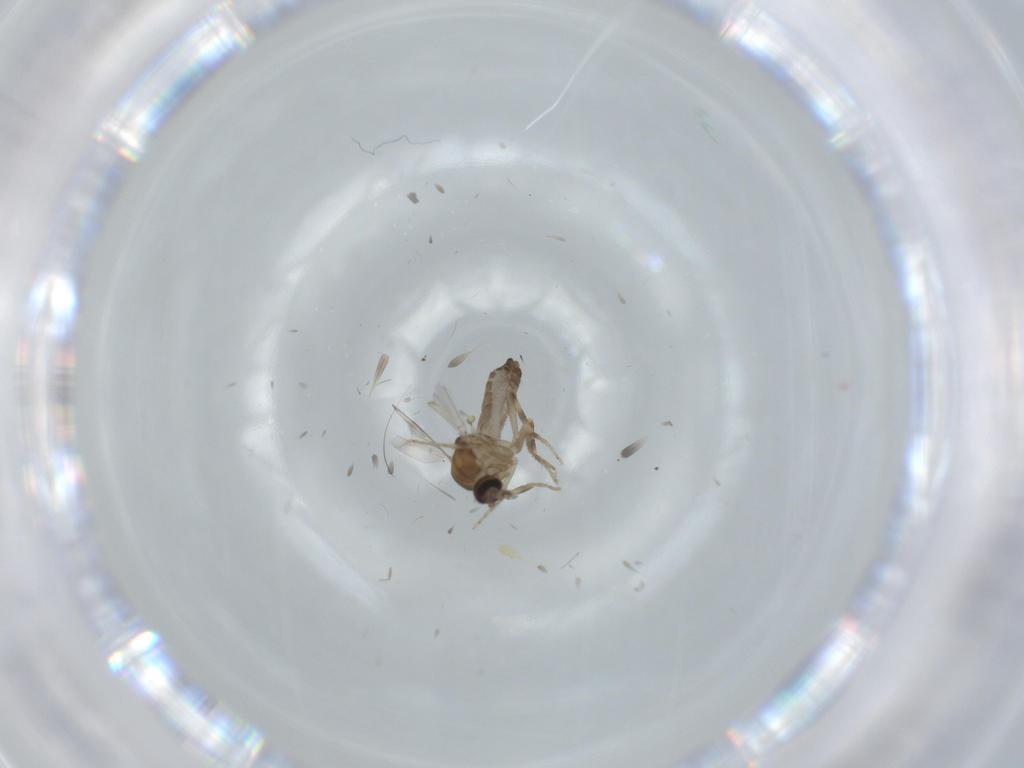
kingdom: Animalia
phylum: Arthropoda
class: Insecta
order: Diptera
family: Ceratopogonidae
